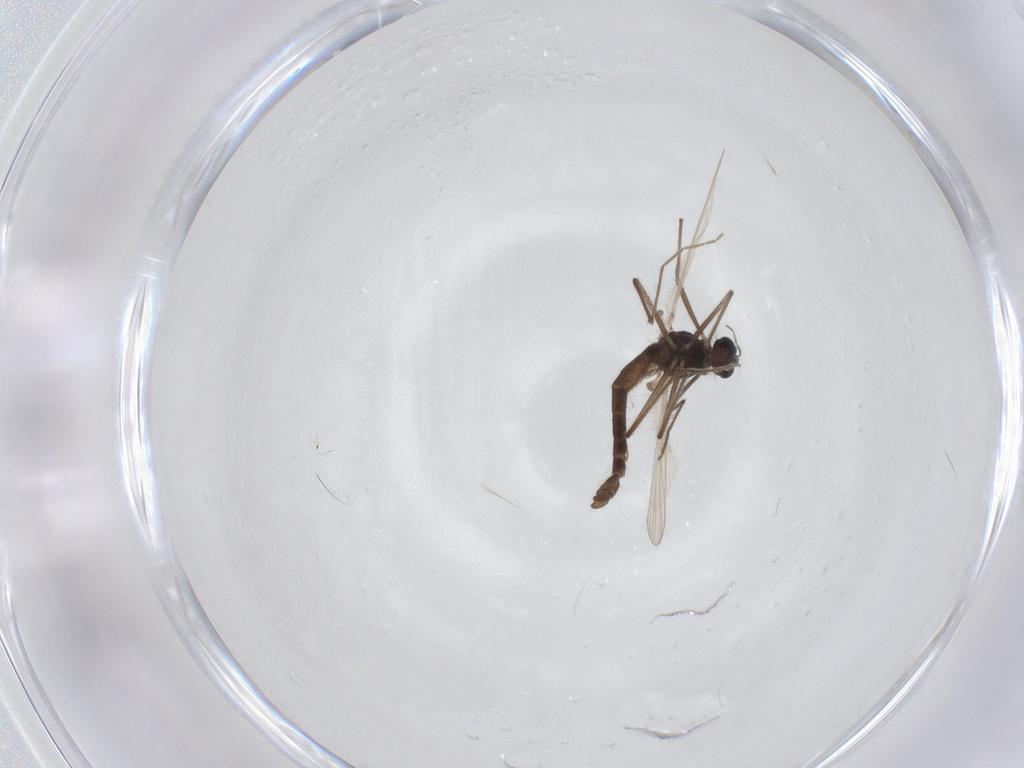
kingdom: Animalia
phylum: Arthropoda
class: Insecta
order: Diptera
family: Chironomidae
